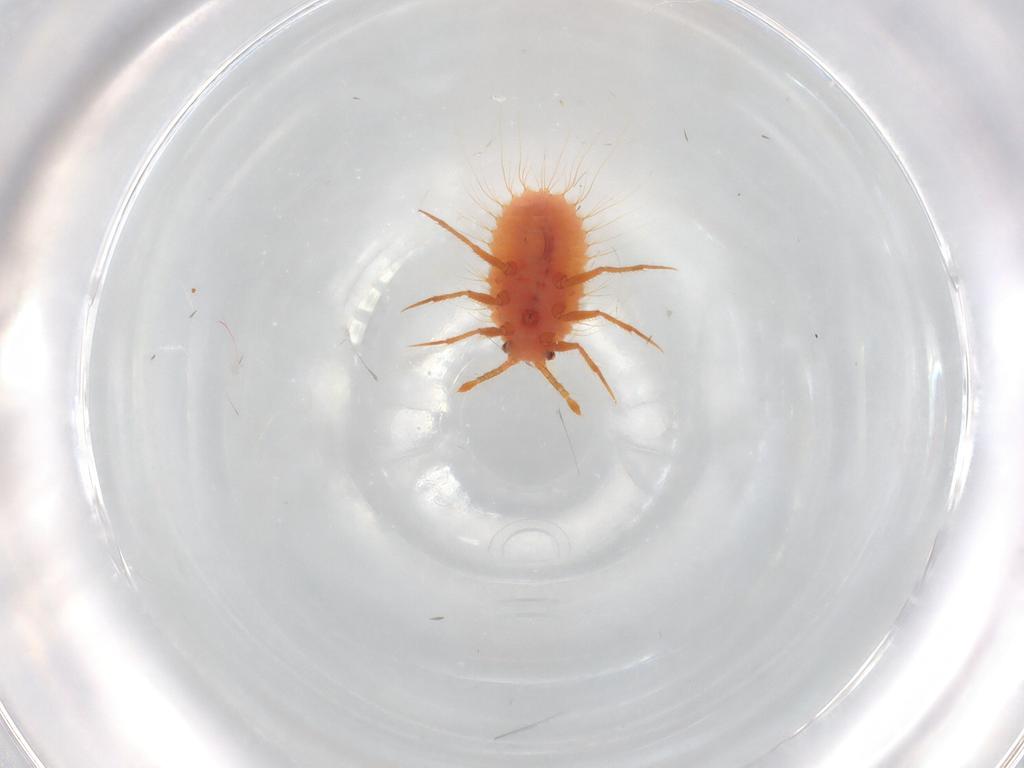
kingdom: Animalia
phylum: Arthropoda
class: Insecta
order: Hemiptera
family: Coccoidea_incertae_sedis
